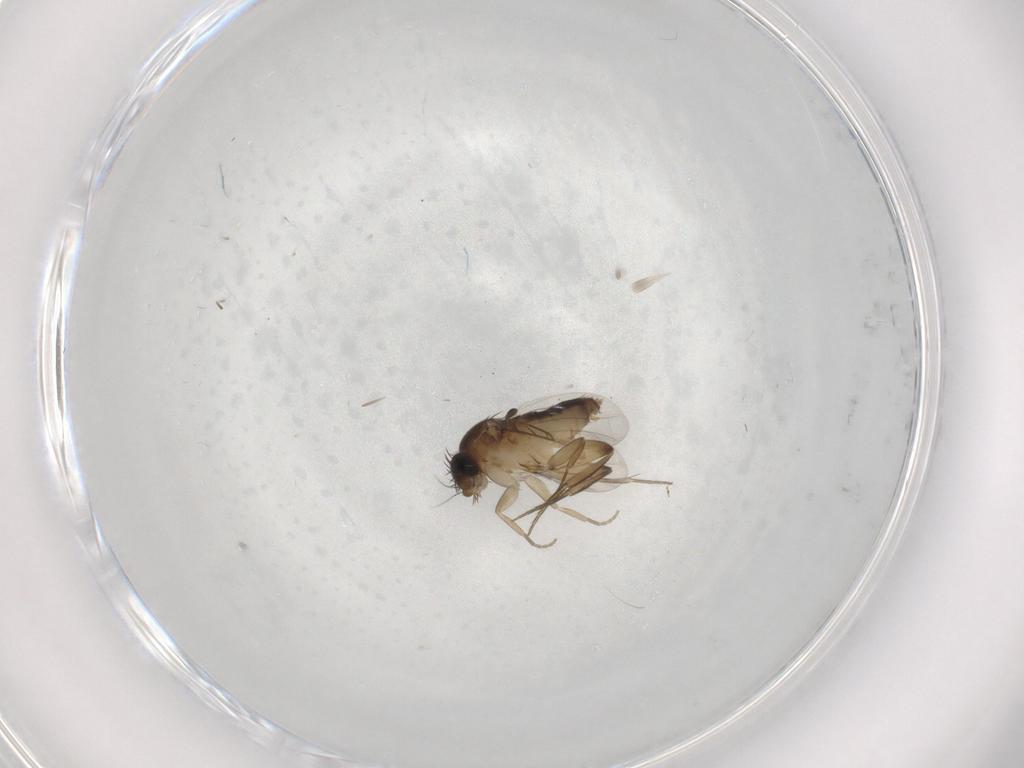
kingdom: Animalia
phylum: Arthropoda
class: Insecta
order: Diptera
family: Phoridae
